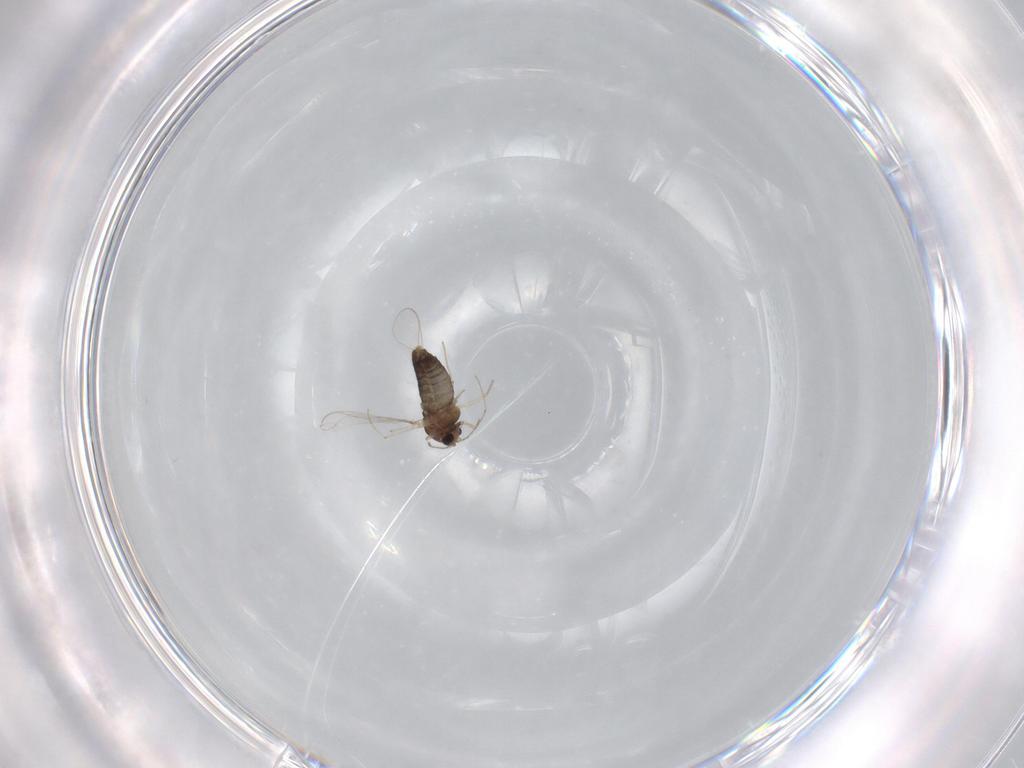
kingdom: Animalia
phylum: Arthropoda
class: Insecta
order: Diptera
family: Chironomidae
